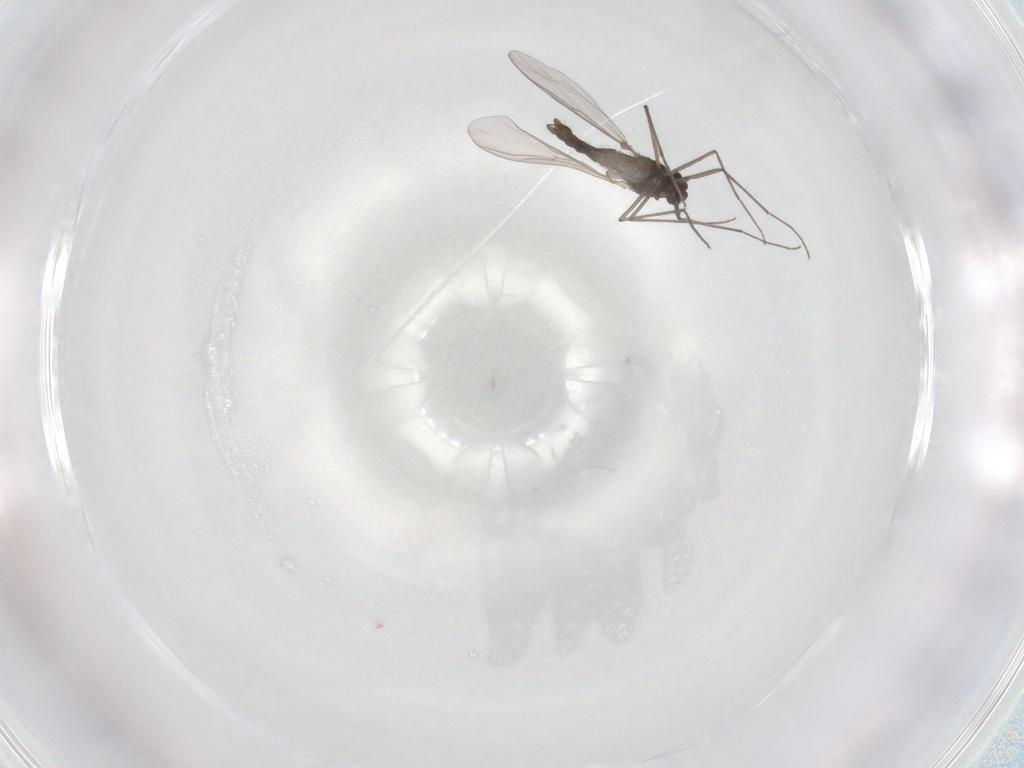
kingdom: Animalia
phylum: Arthropoda
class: Insecta
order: Diptera
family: Chironomidae
